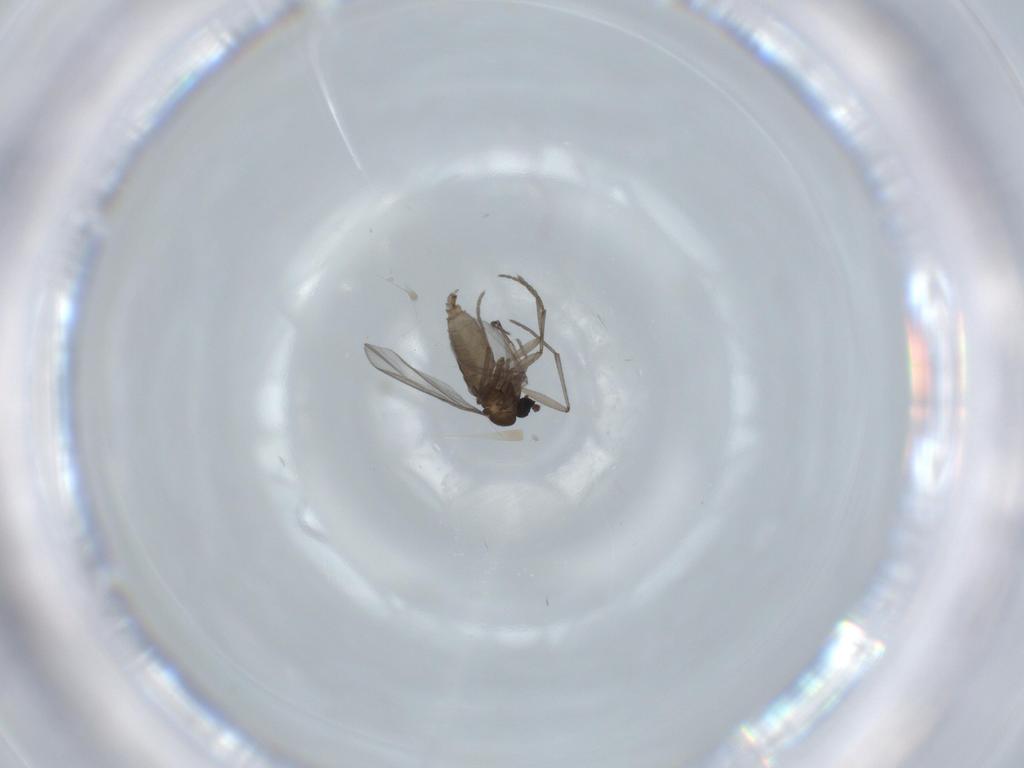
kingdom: Animalia
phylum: Arthropoda
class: Insecta
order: Diptera
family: Sciaridae
